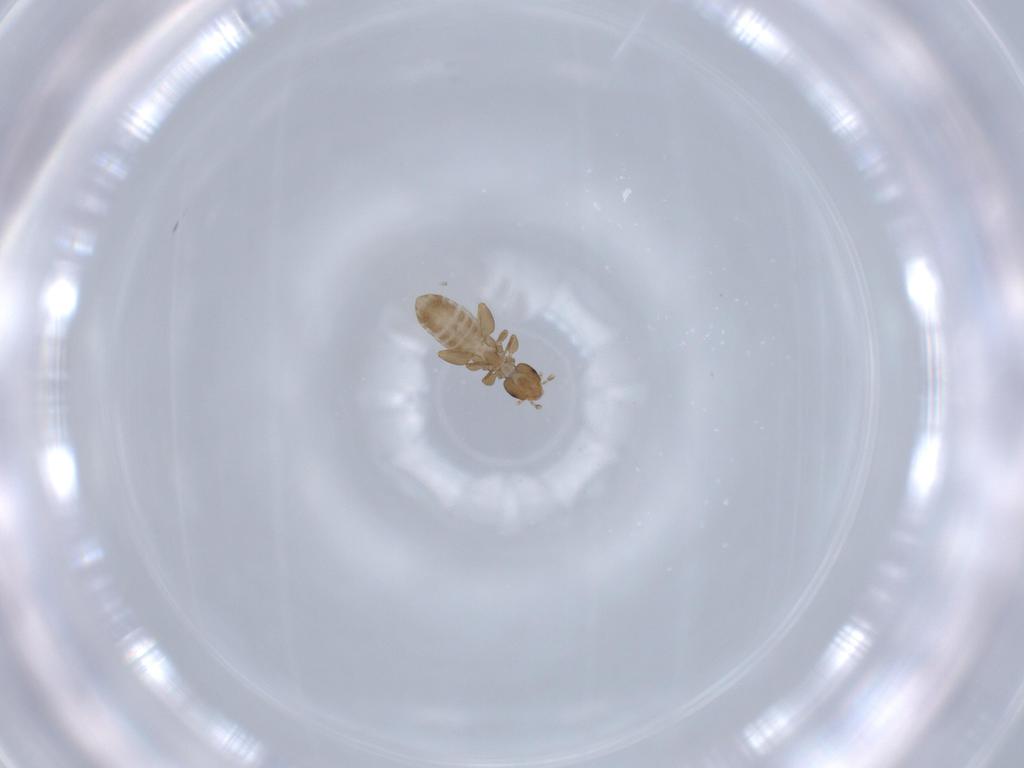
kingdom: Animalia
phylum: Arthropoda
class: Insecta
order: Psocodea
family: Liposcelididae
